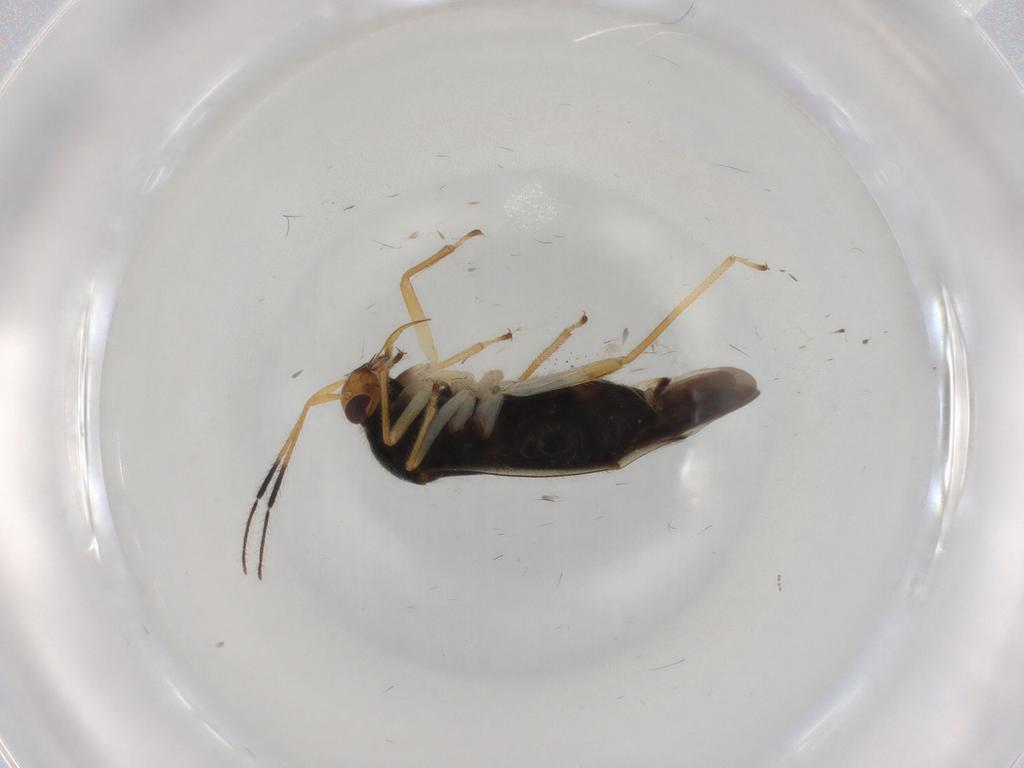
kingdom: Animalia
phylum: Arthropoda
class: Insecta
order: Hemiptera
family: Miridae
